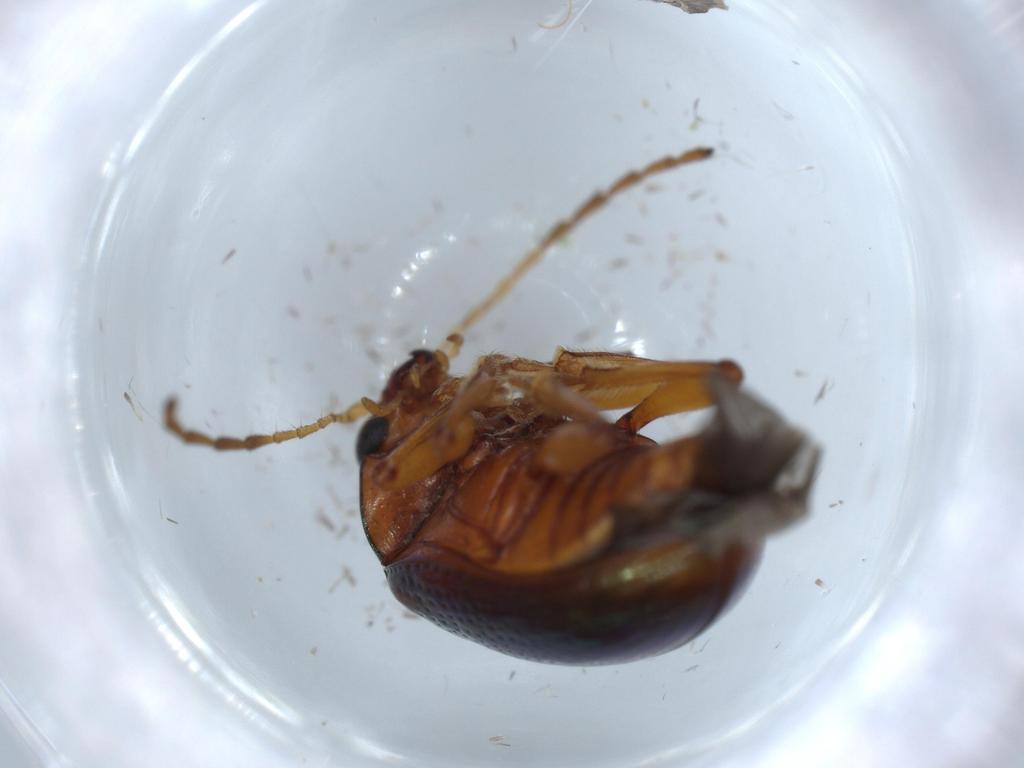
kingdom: Animalia
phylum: Arthropoda
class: Insecta
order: Coleoptera
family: Chrysomelidae
